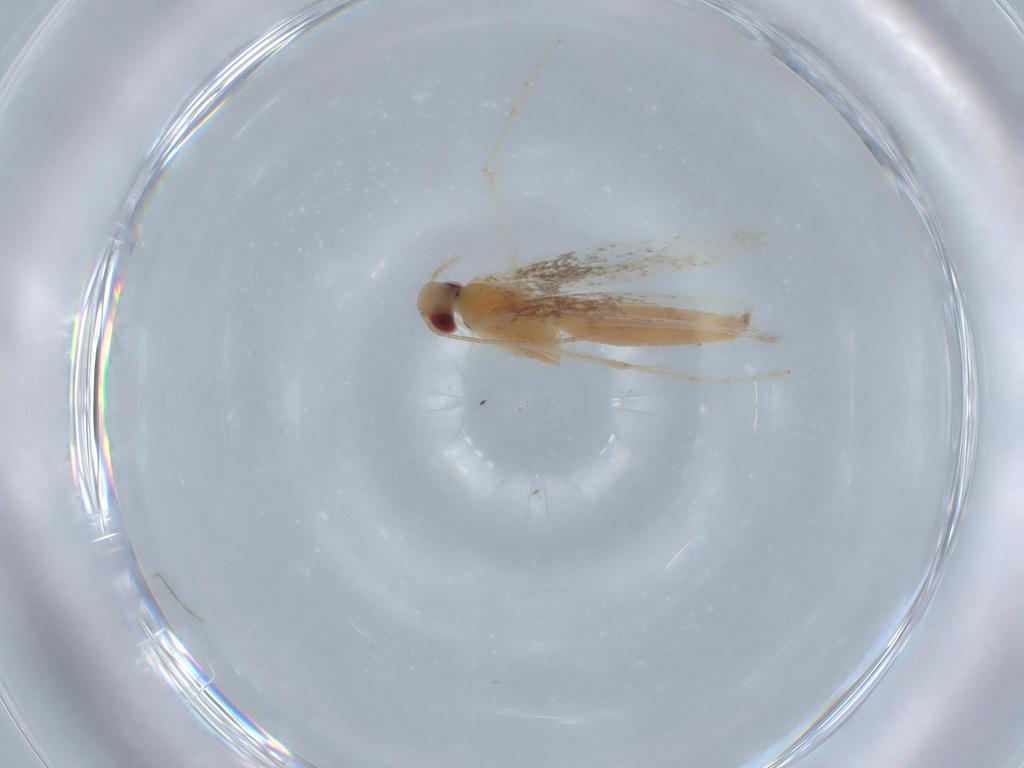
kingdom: Animalia
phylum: Arthropoda
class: Insecta
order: Lepidoptera
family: Gracillariidae
